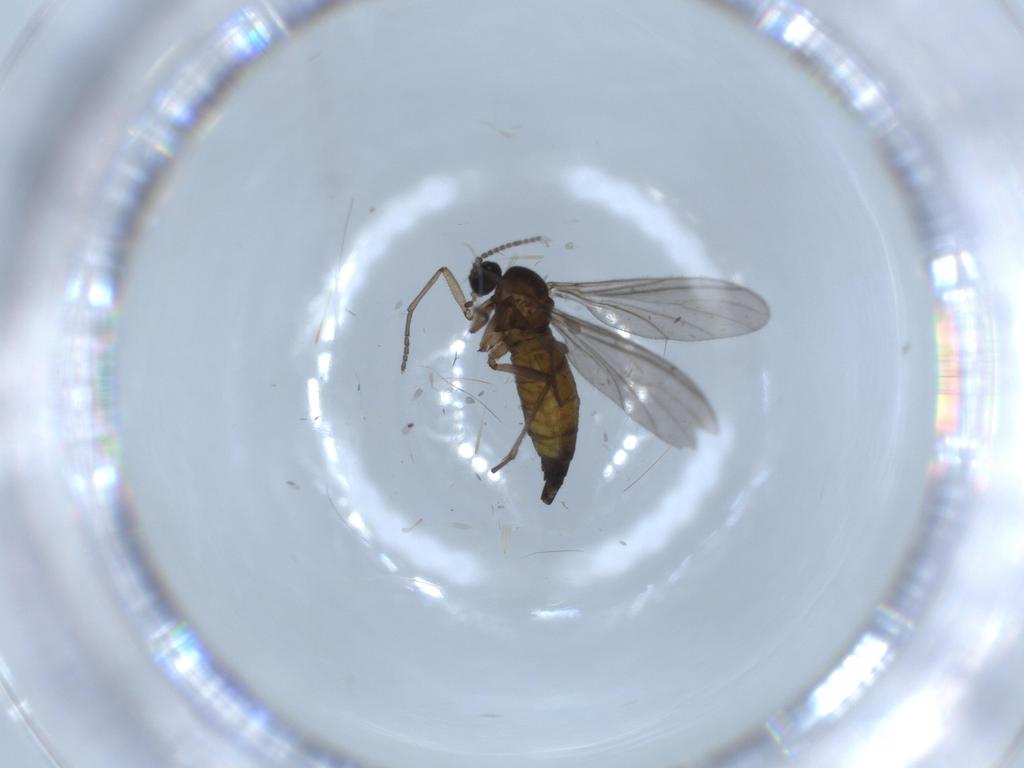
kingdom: Animalia
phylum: Arthropoda
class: Insecta
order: Diptera
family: Sciaridae
